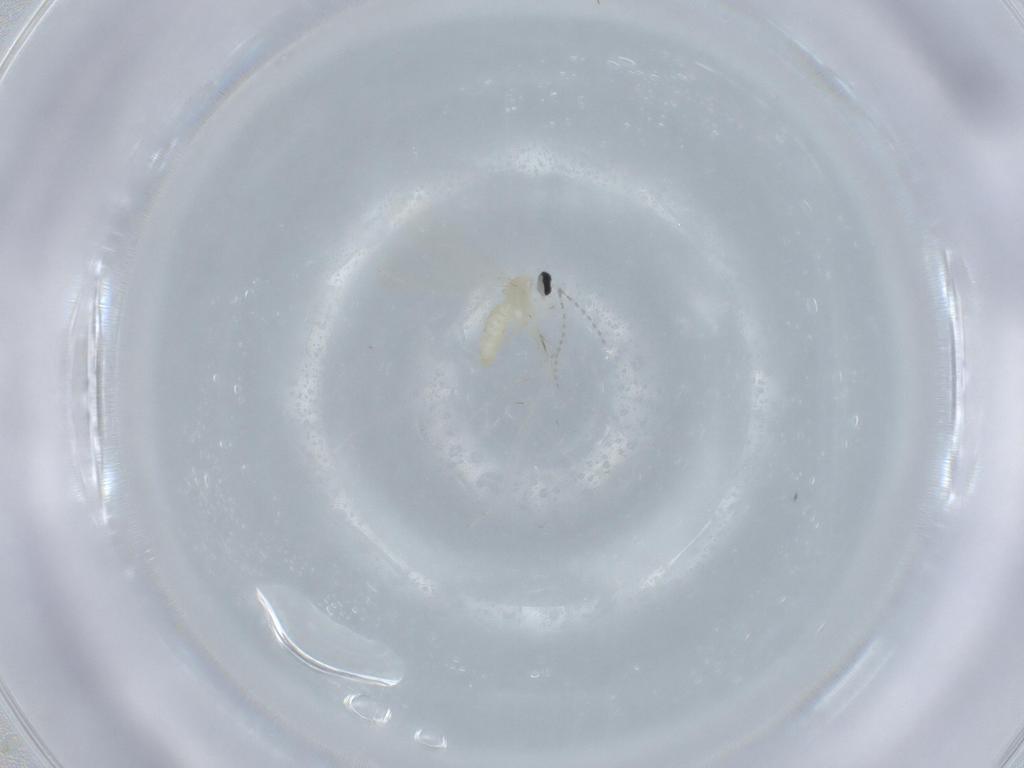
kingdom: Animalia
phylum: Arthropoda
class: Insecta
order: Diptera
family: Cecidomyiidae
